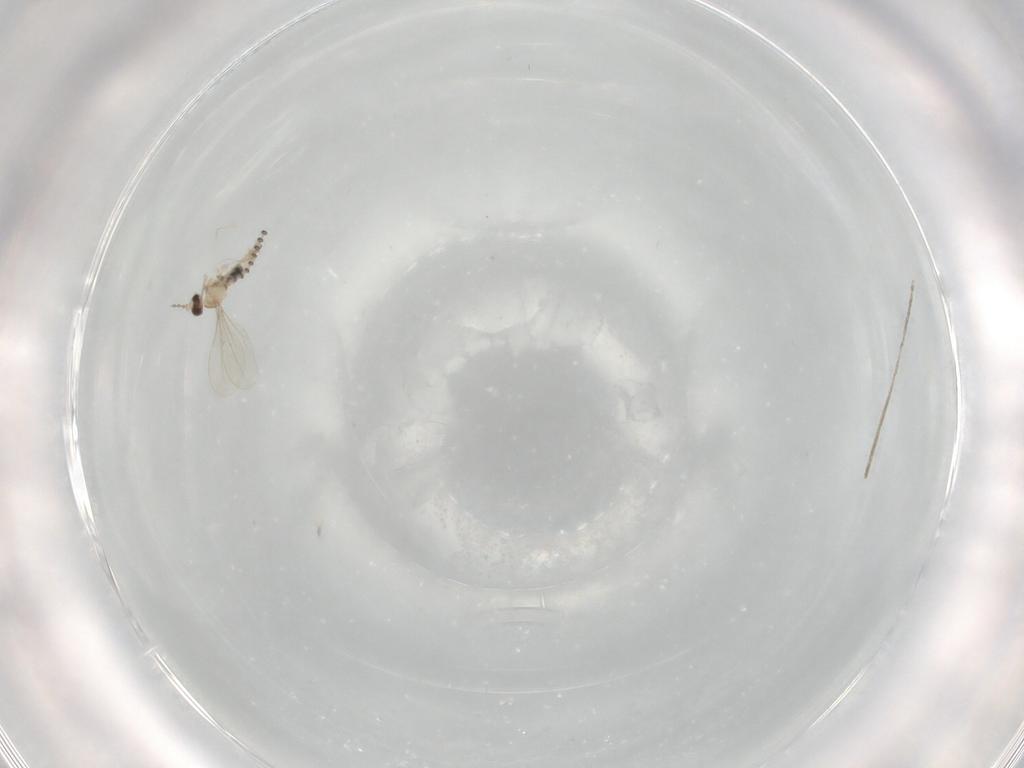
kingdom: Animalia
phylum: Arthropoda
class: Insecta
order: Diptera
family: Psychodidae
